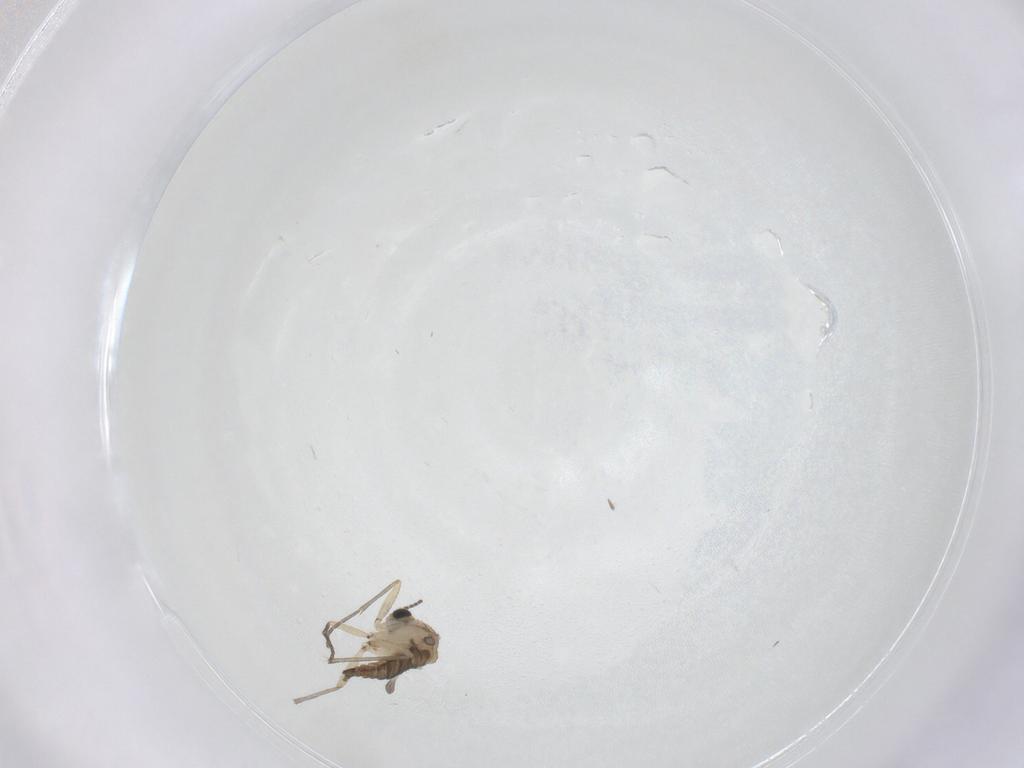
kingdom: Animalia
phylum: Arthropoda
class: Insecta
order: Diptera
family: Sciaridae
